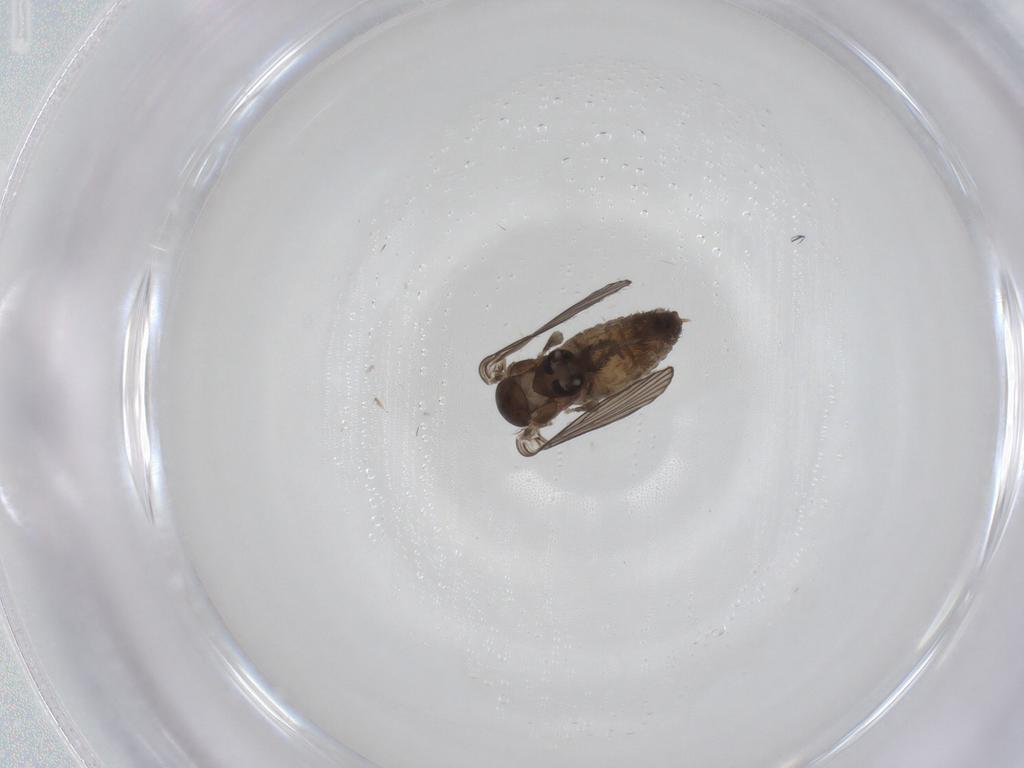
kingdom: Animalia
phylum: Arthropoda
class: Insecta
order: Diptera
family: Psychodidae
